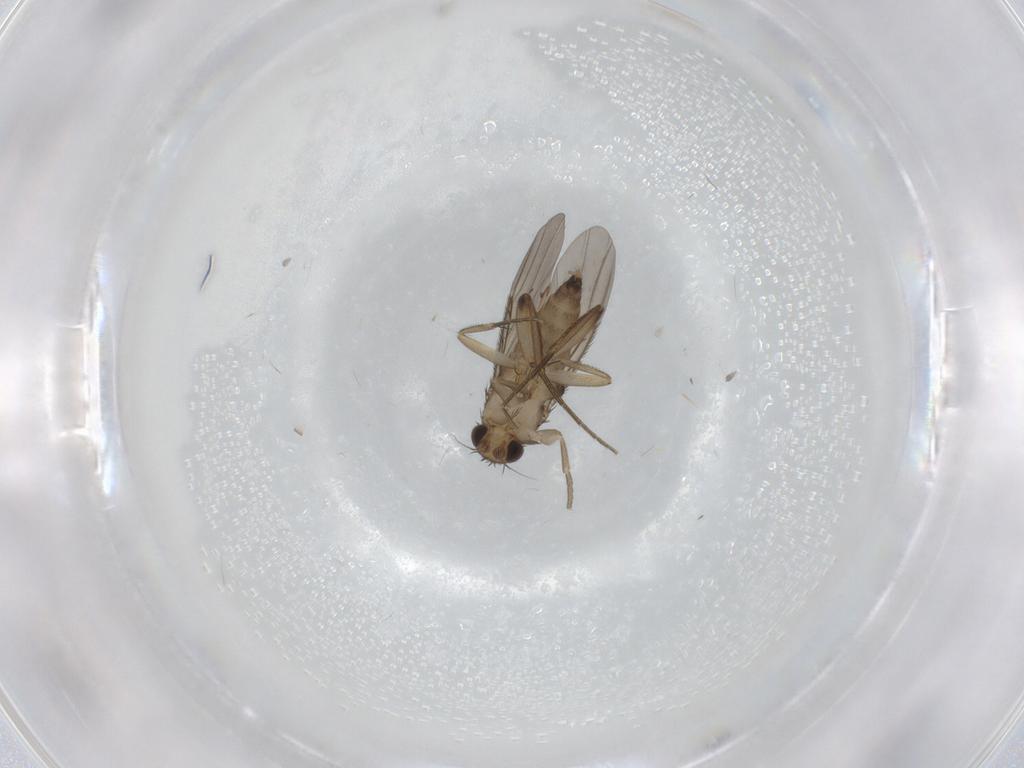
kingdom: Animalia
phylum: Arthropoda
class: Insecta
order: Diptera
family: Phoridae
